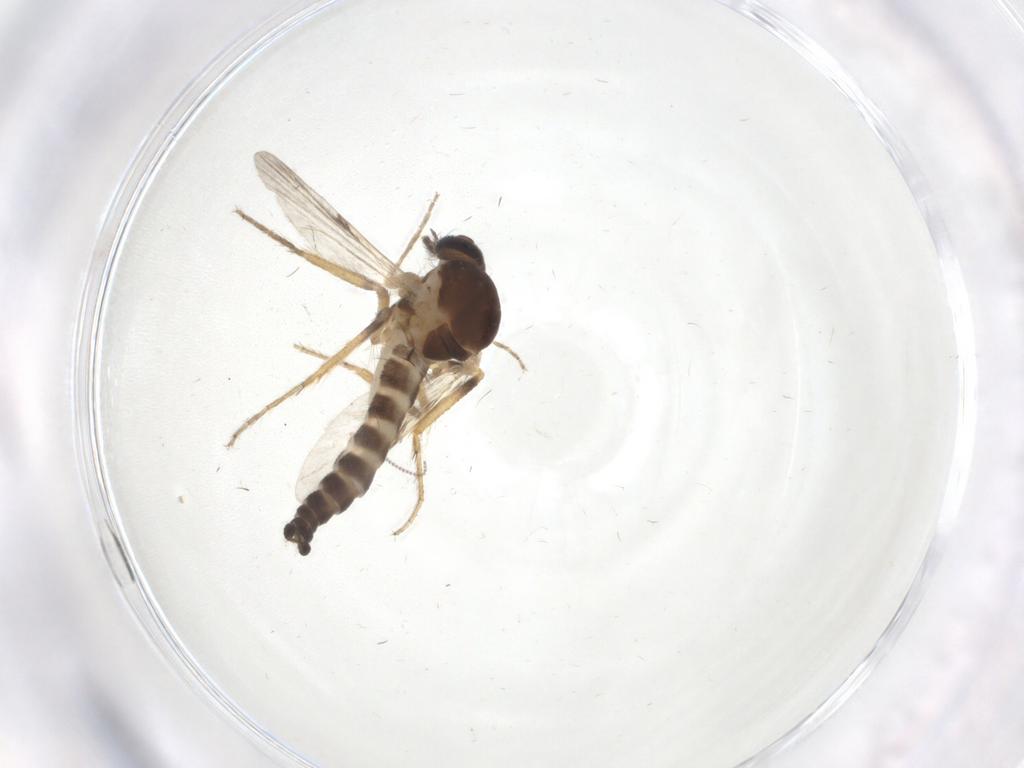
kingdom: Animalia
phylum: Arthropoda
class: Insecta
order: Diptera
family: Ceratopogonidae
